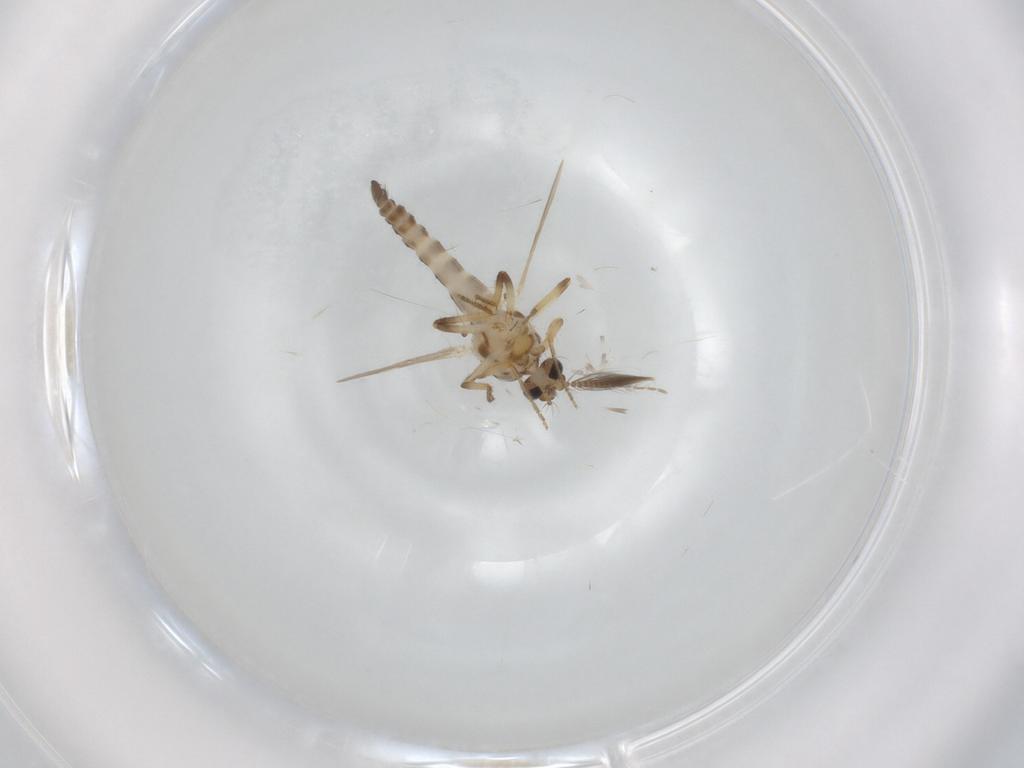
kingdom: Animalia
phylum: Arthropoda
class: Insecta
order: Diptera
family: Ceratopogonidae
